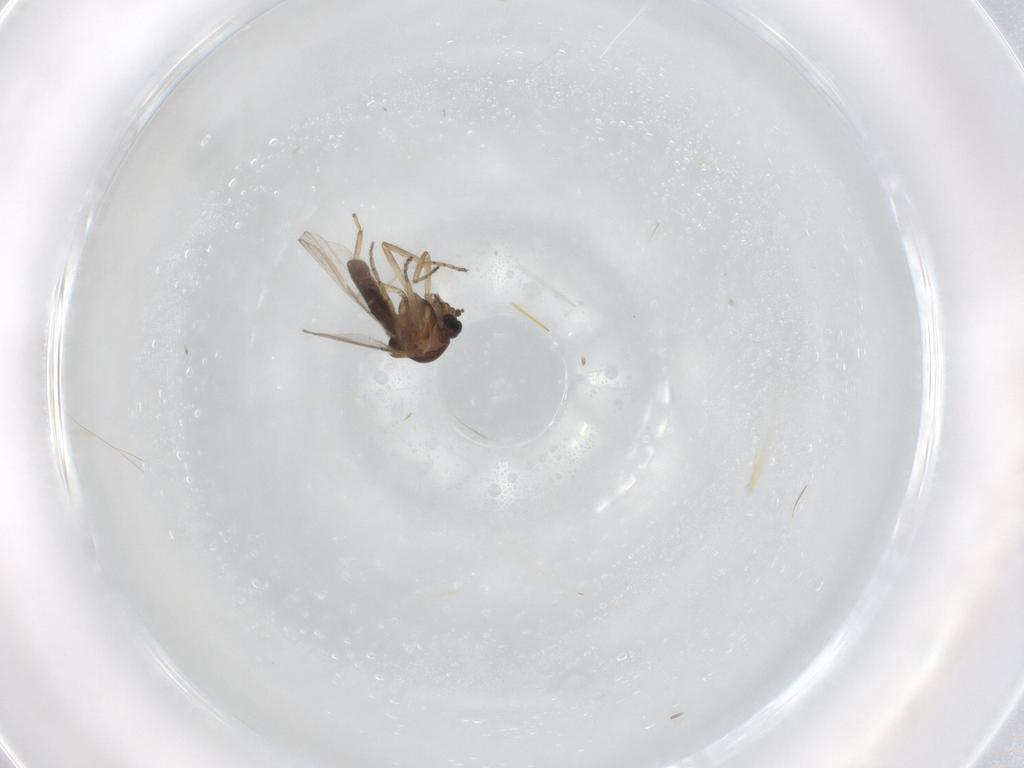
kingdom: Animalia
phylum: Arthropoda
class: Insecta
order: Diptera
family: Ceratopogonidae
